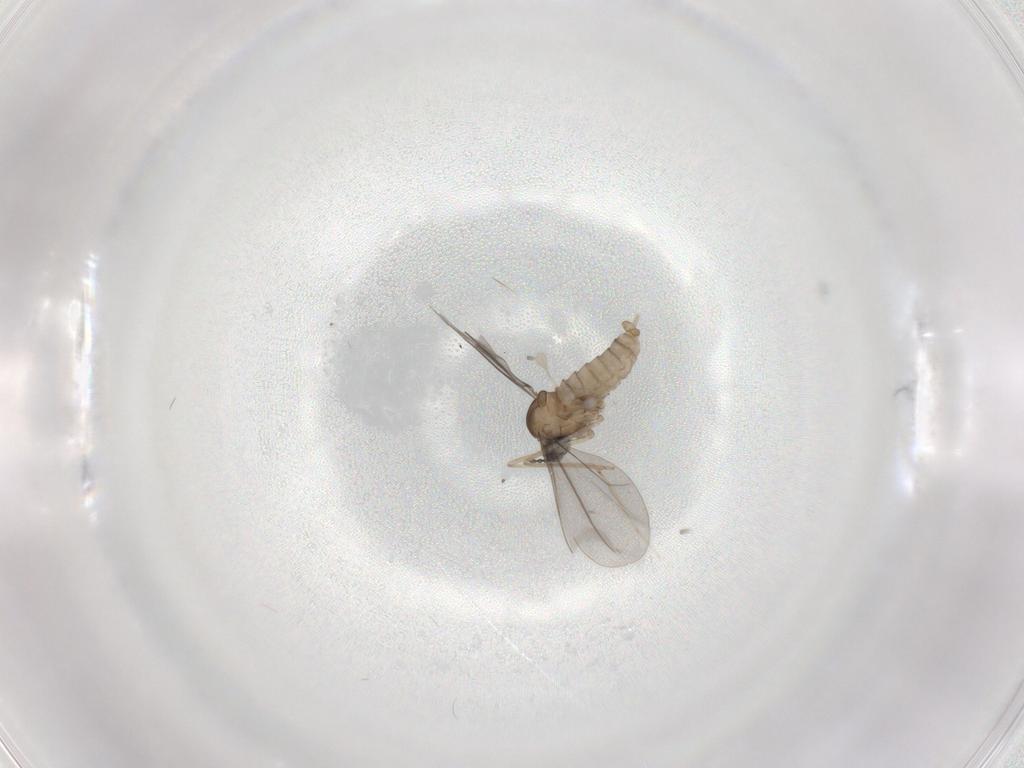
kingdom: Animalia
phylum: Arthropoda
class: Insecta
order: Diptera
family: Cecidomyiidae
